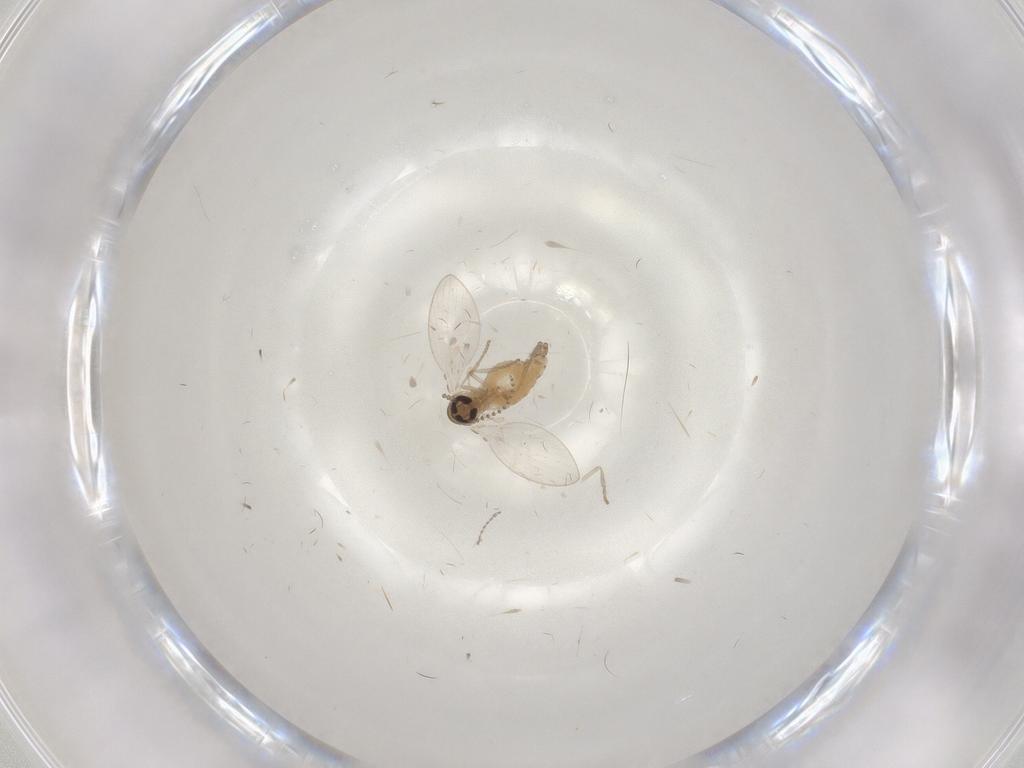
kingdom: Animalia
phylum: Arthropoda
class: Insecta
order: Diptera
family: Cecidomyiidae
